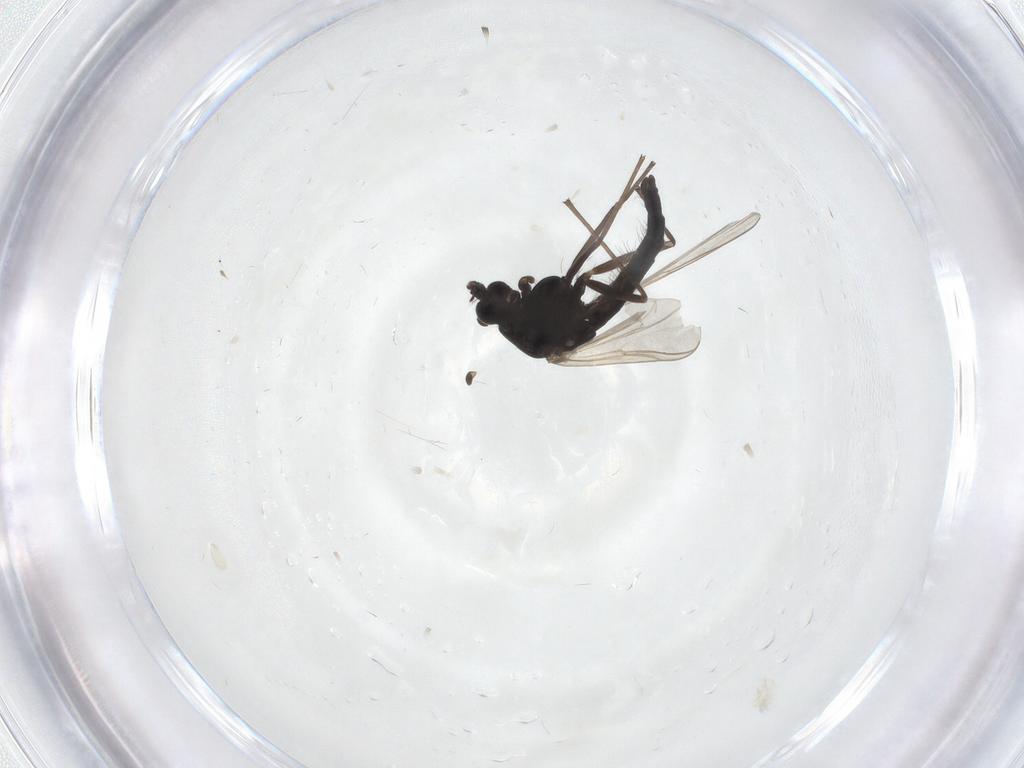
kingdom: Animalia
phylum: Arthropoda
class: Insecta
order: Diptera
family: Chironomidae
